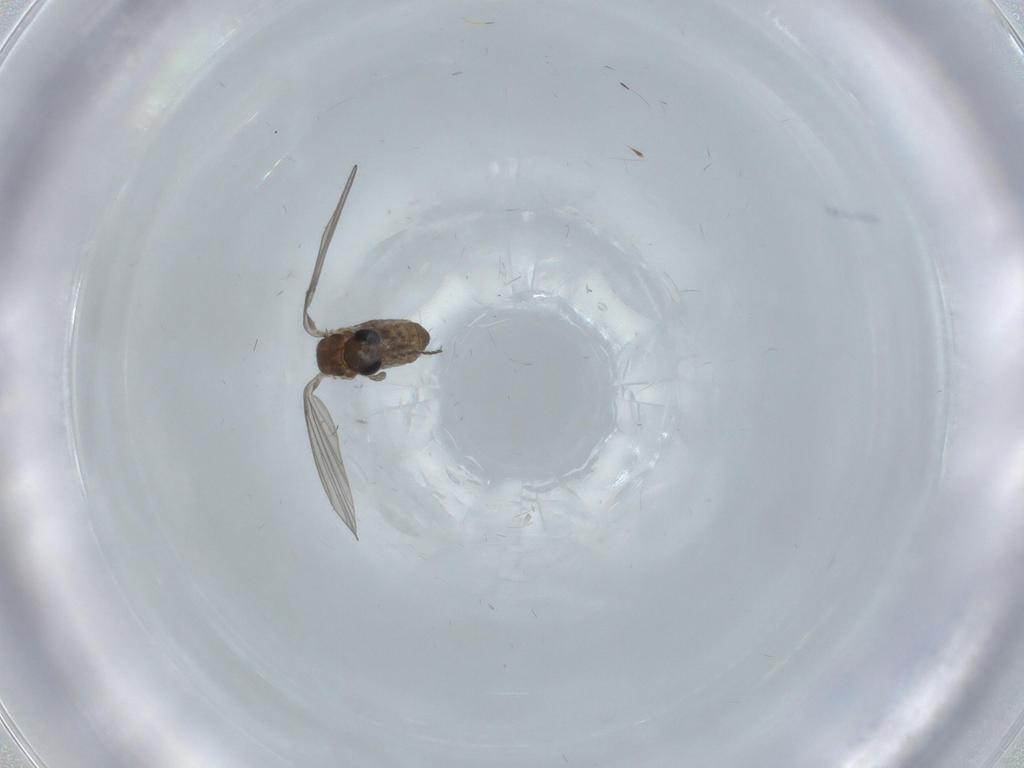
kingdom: Animalia
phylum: Arthropoda
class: Insecta
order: Diptera
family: Psychodidae
